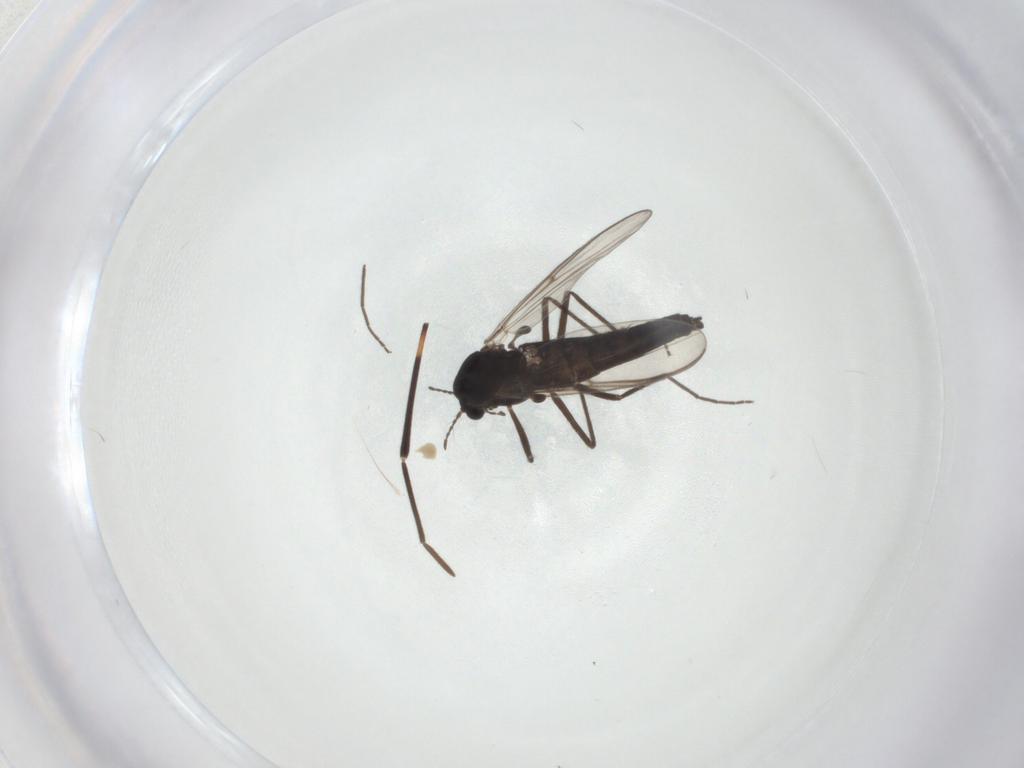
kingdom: Animalia
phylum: Arthropoda
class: Insecta
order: Diptera
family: Chironomidae
